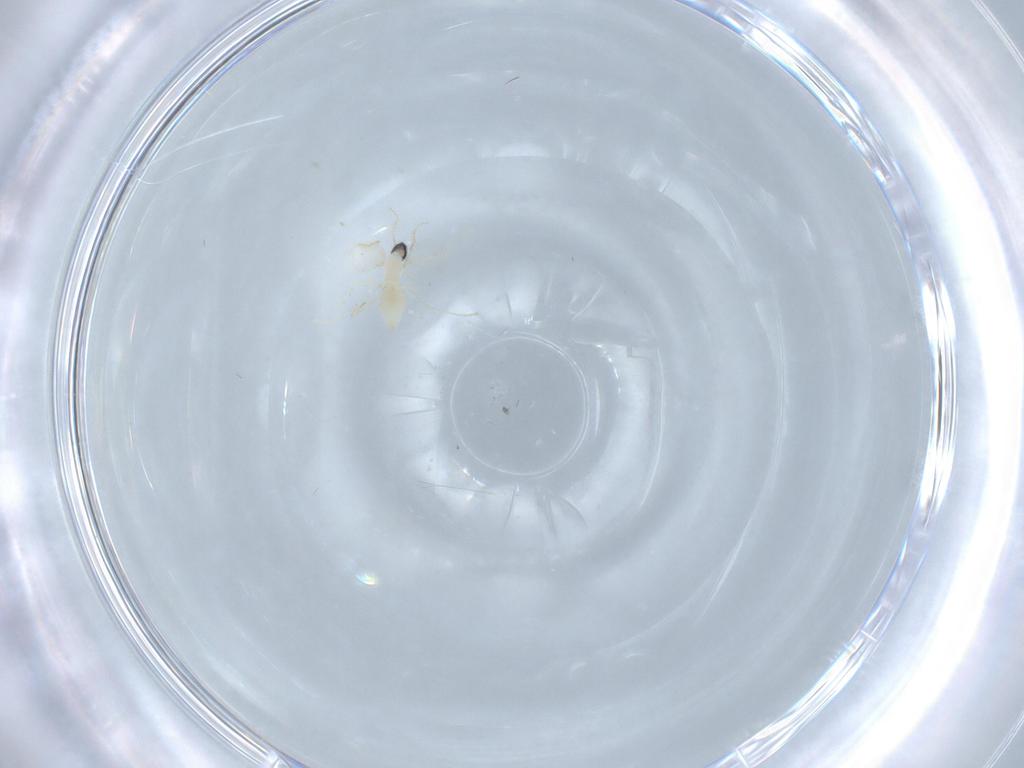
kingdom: Animalia
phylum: Arthropoda
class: Insecta
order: Diptera
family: Cecidomyiidae
